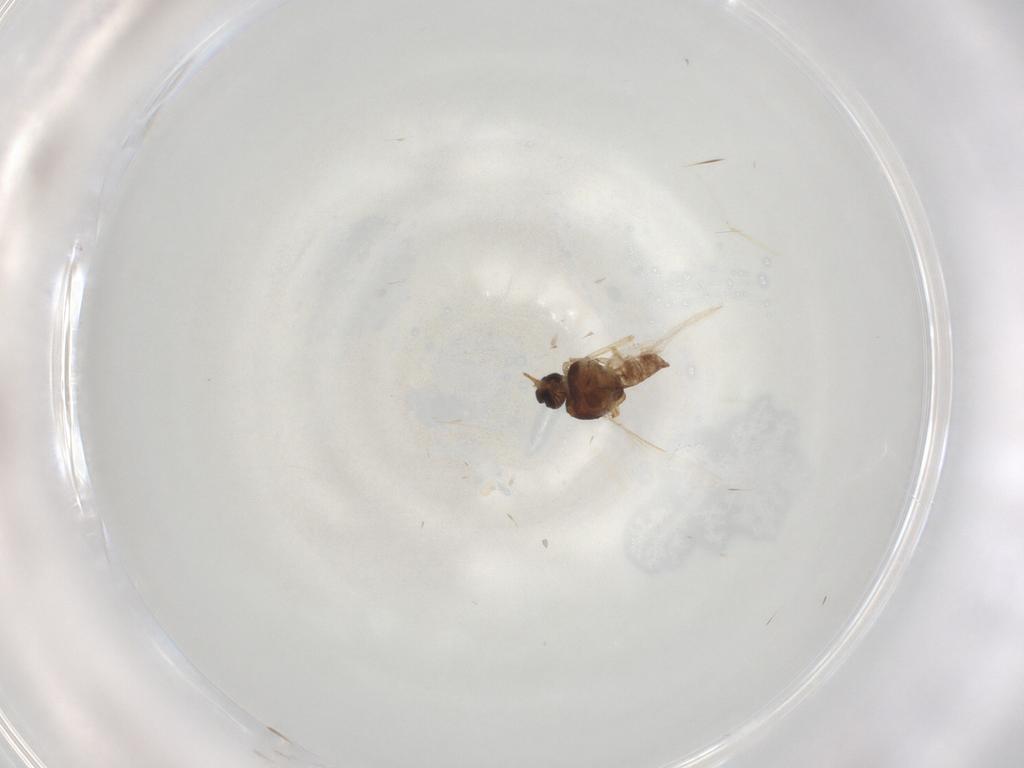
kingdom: Animalia
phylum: Arthropoda
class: Insecta
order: Diptera
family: Ceratopogonidae
